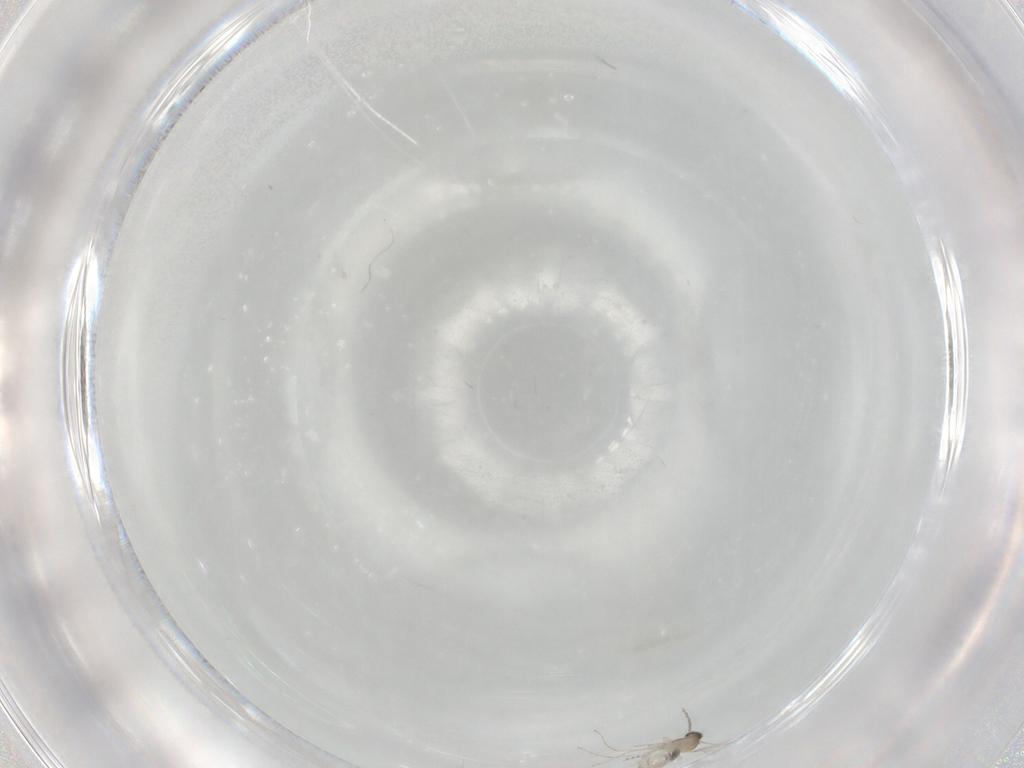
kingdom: Animalia
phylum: Arthropoda
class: Insecta
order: Diptera
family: Cecidomyiidae
